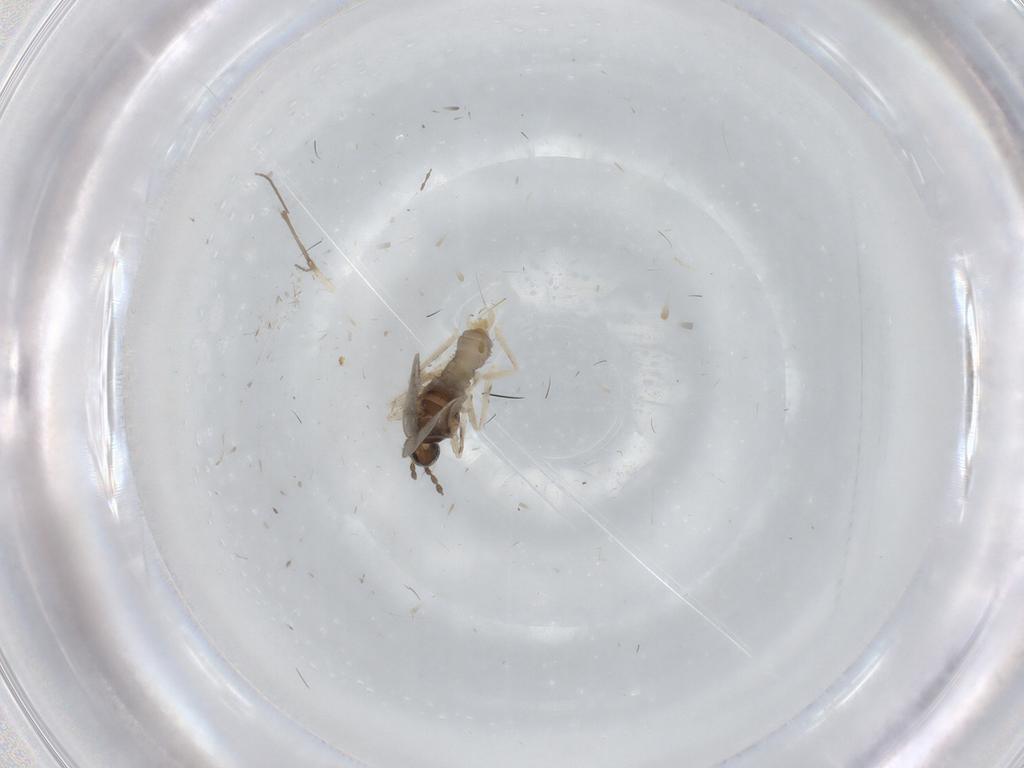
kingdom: Animalia
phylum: Arthropoda
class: Insecta
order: Diptera
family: Cecidomyiidae
